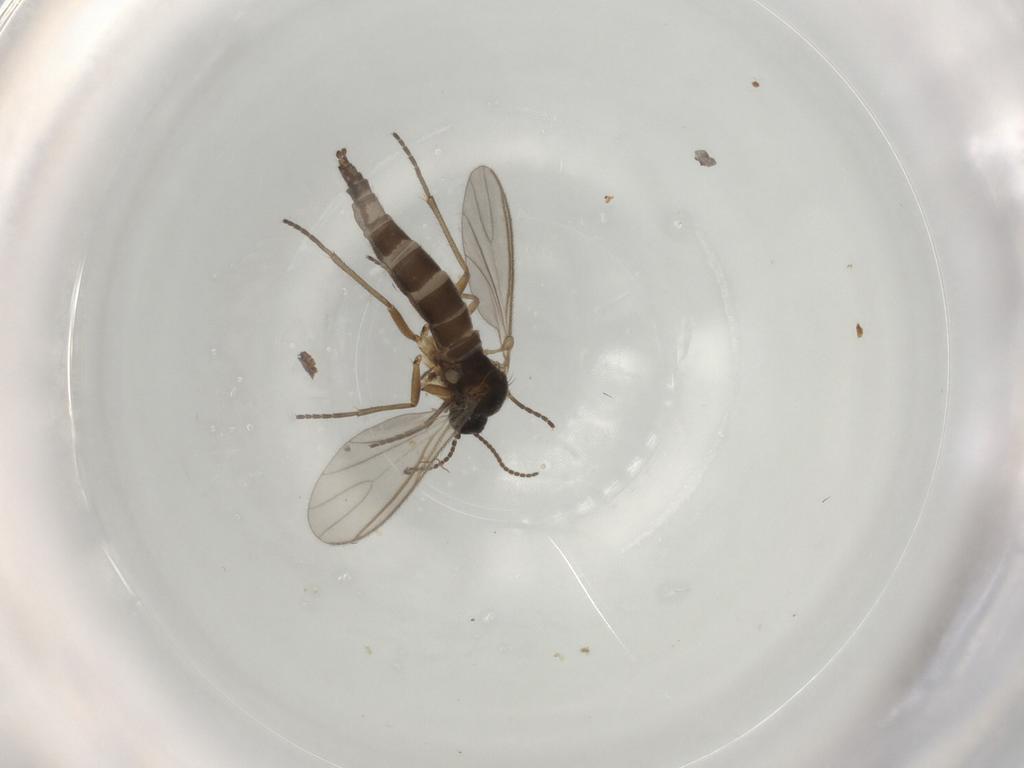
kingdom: Animalia
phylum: Arthropoda
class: Insecta
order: Diptera
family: Sciaridae
